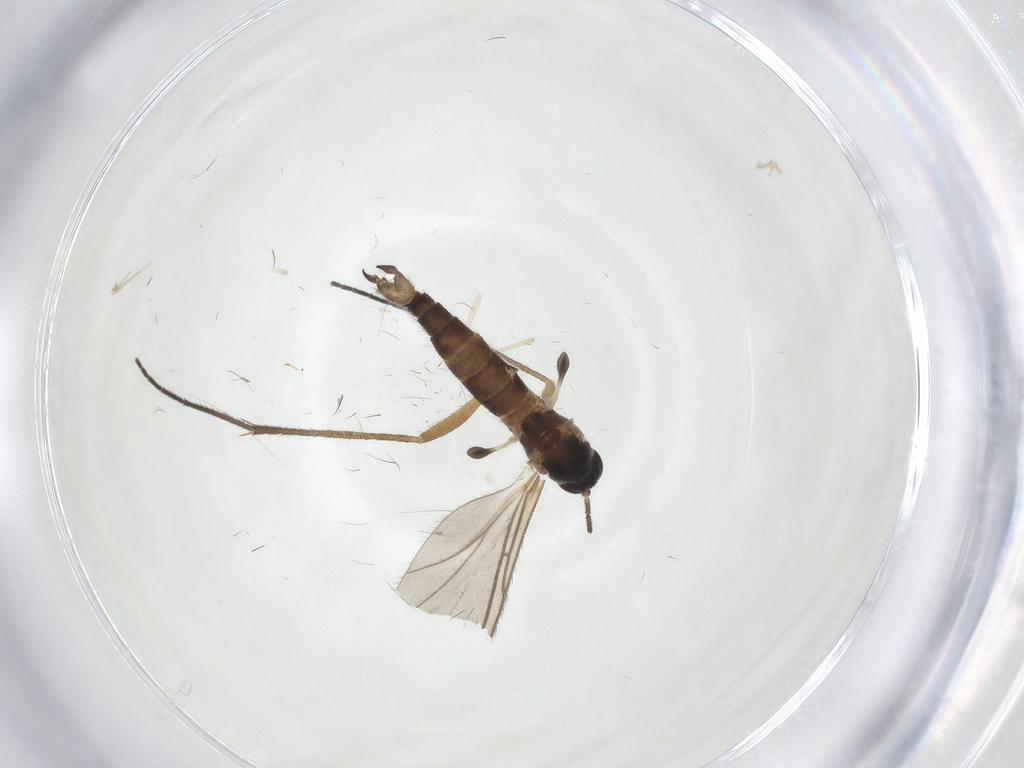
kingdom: Animalia
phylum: Arthropoda
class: Insecta
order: Diptera
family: Sciaridae
